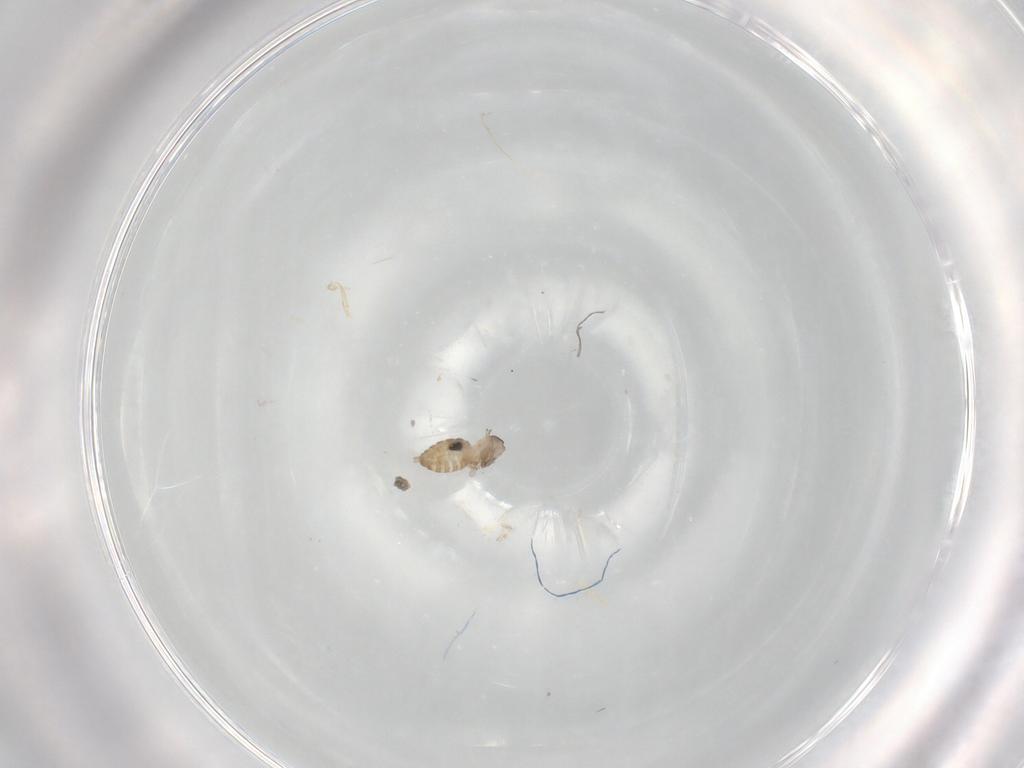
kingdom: Animalia
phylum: Arthropoda
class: Insecta
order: Diptera
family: Cecidomyiidae
